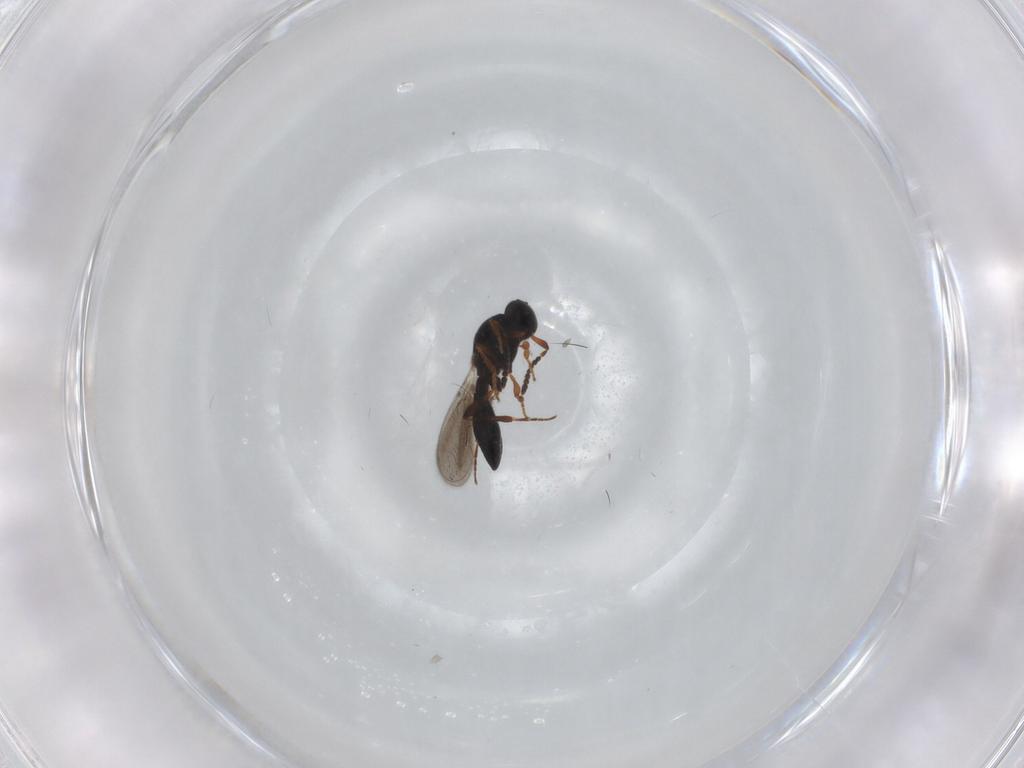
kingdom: Animalia
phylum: Arthropoda
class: Insecta
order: Hymenoptera
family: Platygastridae
